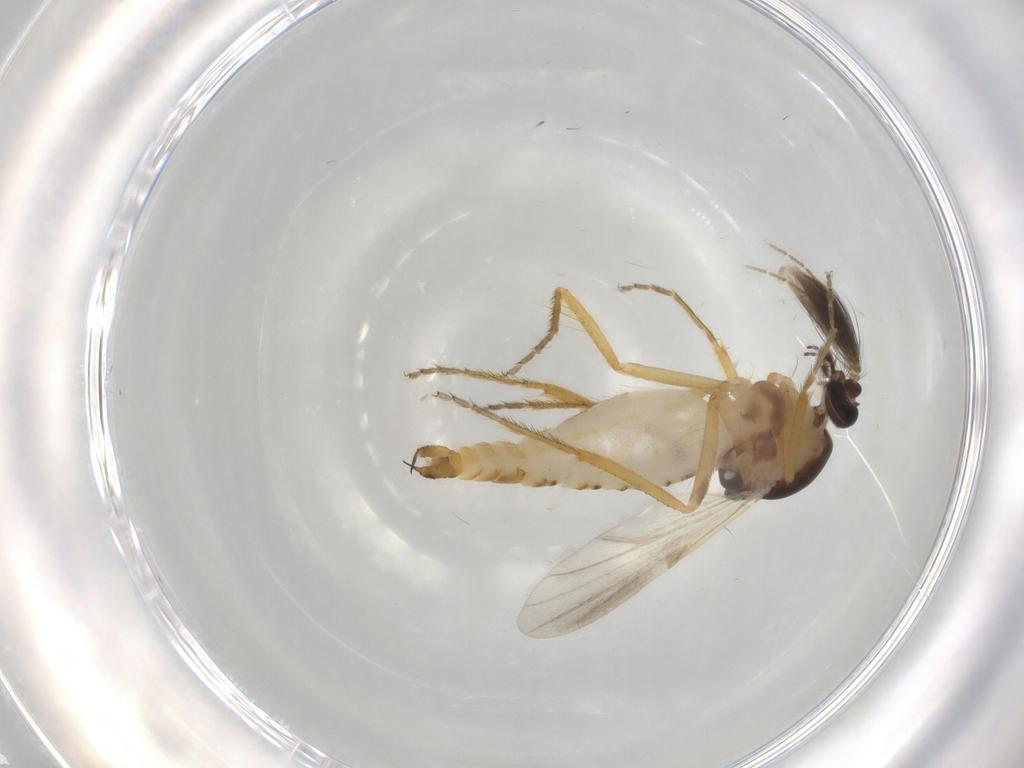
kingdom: Animalia
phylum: Arthropoda
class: Insecta
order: Diptera
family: Ceratopogonidae
